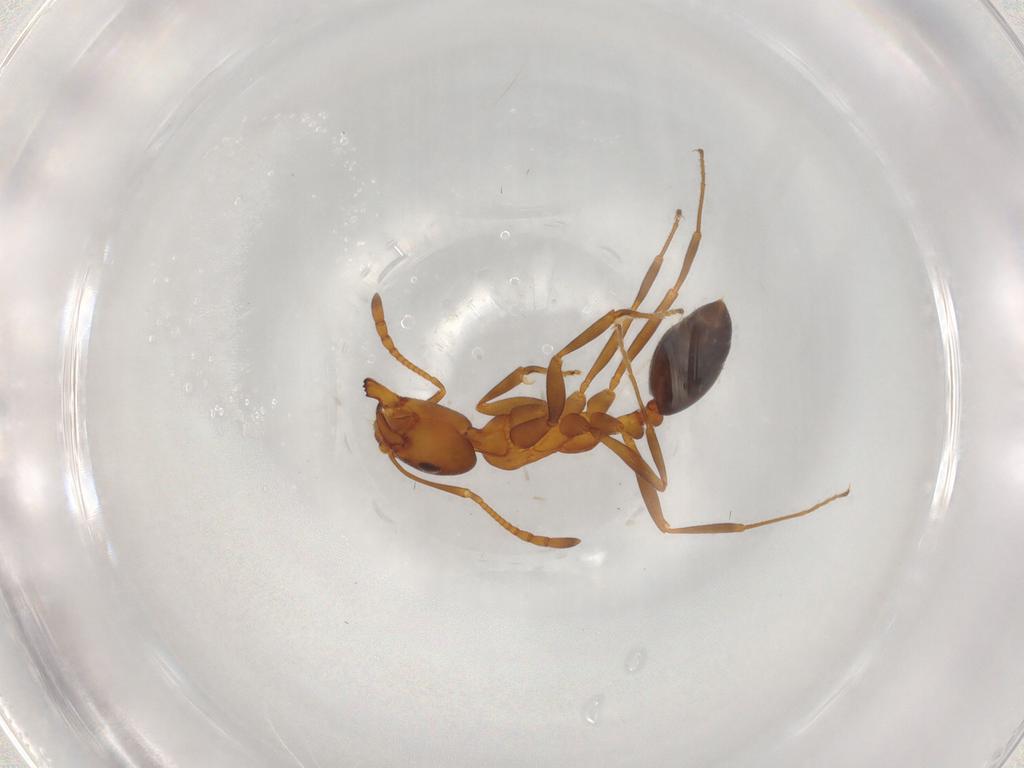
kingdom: Animalia
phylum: Arthropoda
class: Insecta
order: Hymenoptera
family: Formicidae
